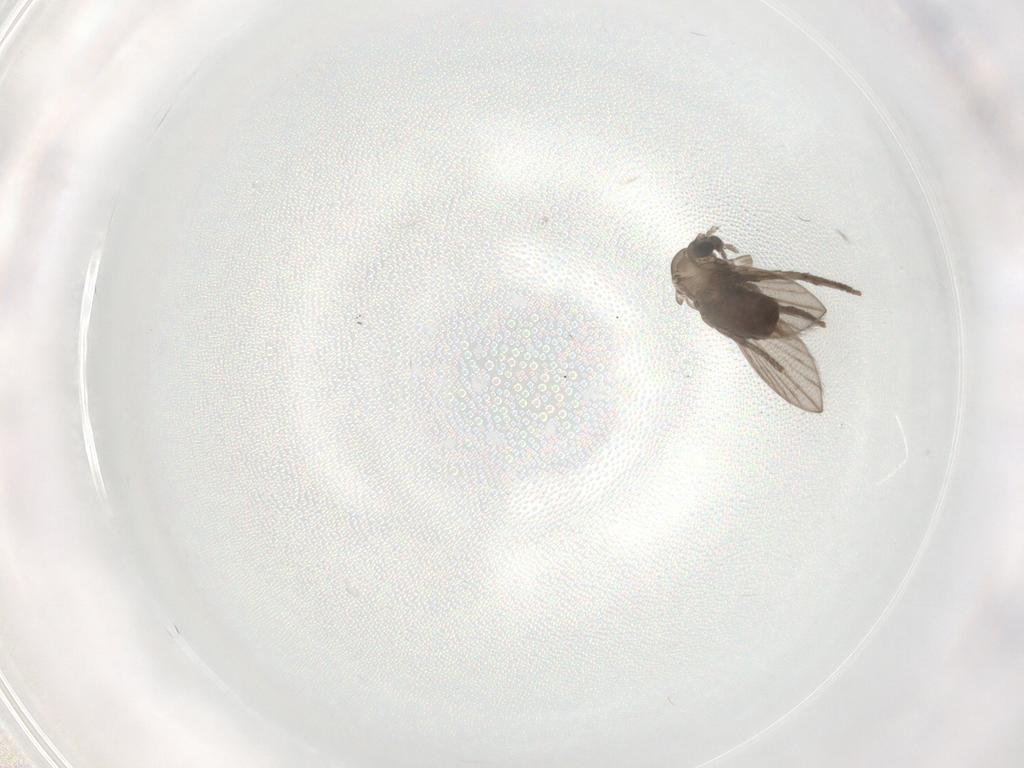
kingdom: Animalia
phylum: Arthropoda
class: Insecta
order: Diptera
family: Psychodidae
